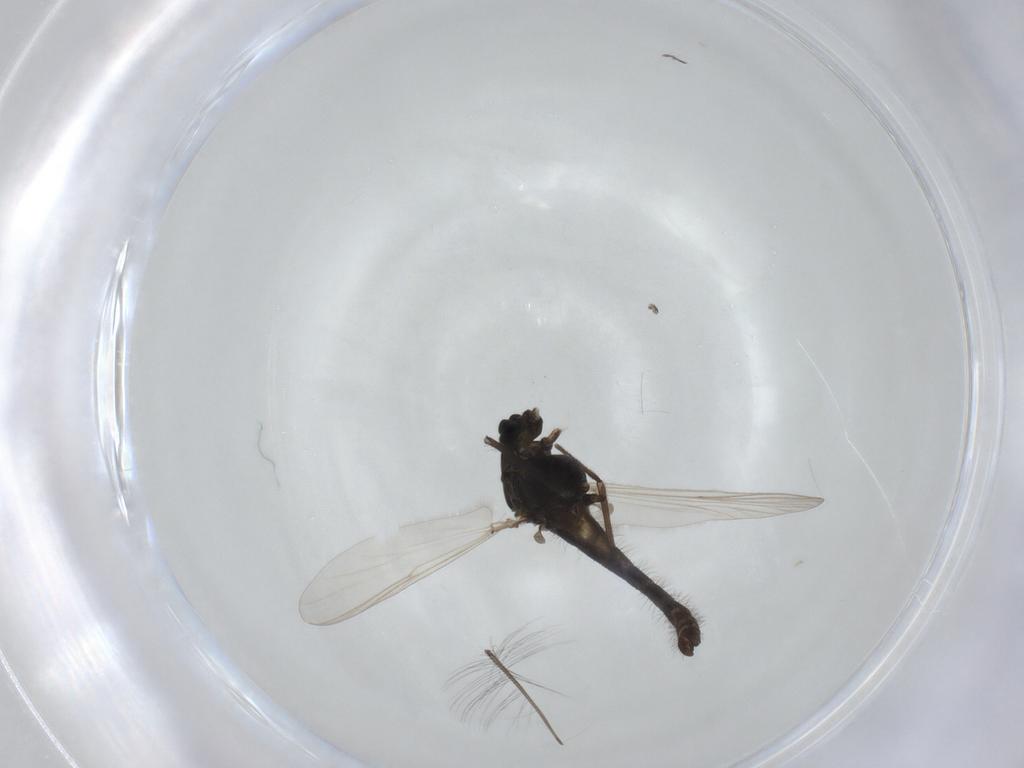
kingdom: Animalia
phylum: Arthropoda
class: Insecta
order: Diptera
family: Chironomidae
